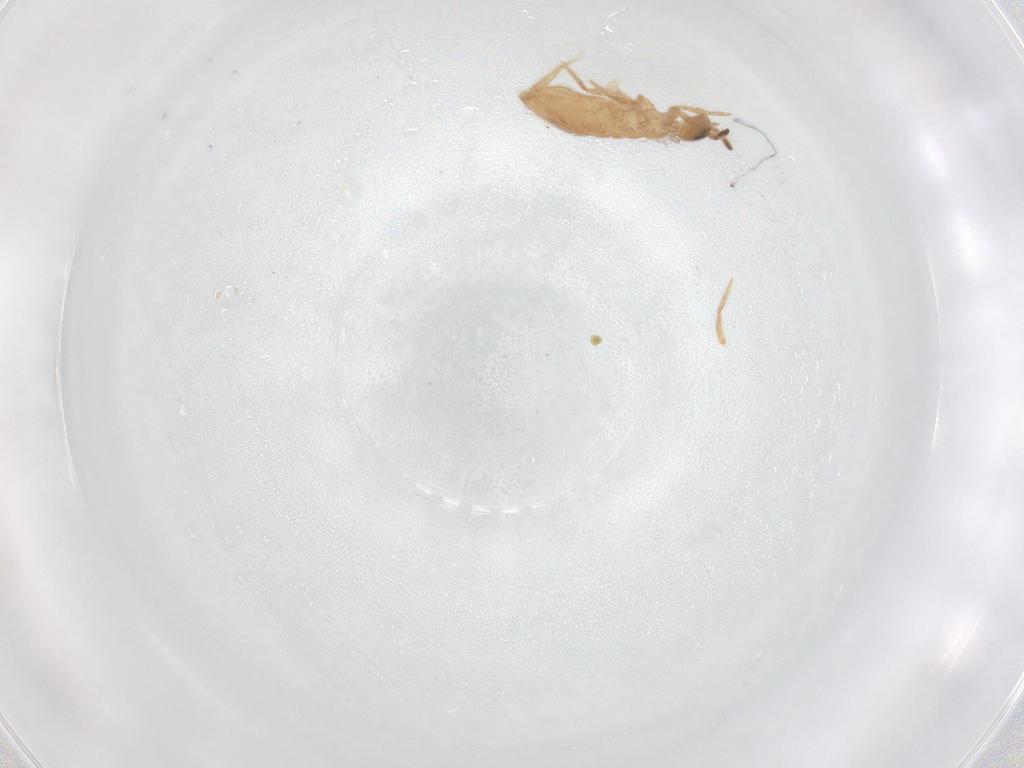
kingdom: Animalia
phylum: Arthropoda
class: Collembola
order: Entomobryomorpha
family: Entomobryidae
